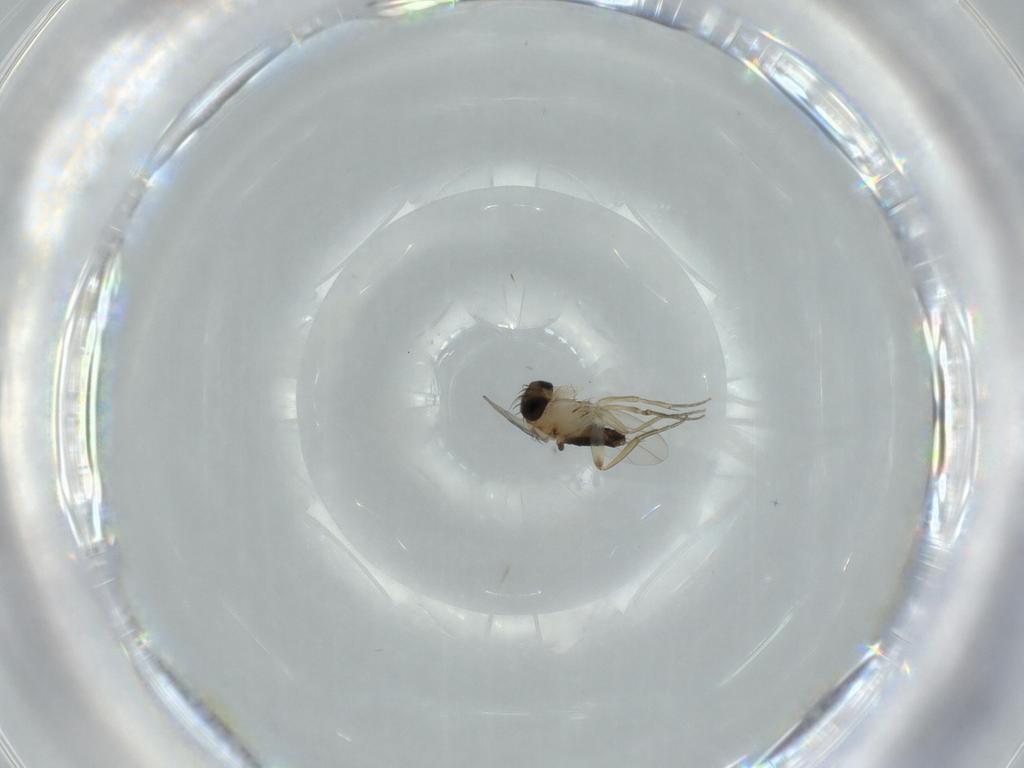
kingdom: Animalia
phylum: Arthropoda
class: Insecta
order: Diptera
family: Phoridae
